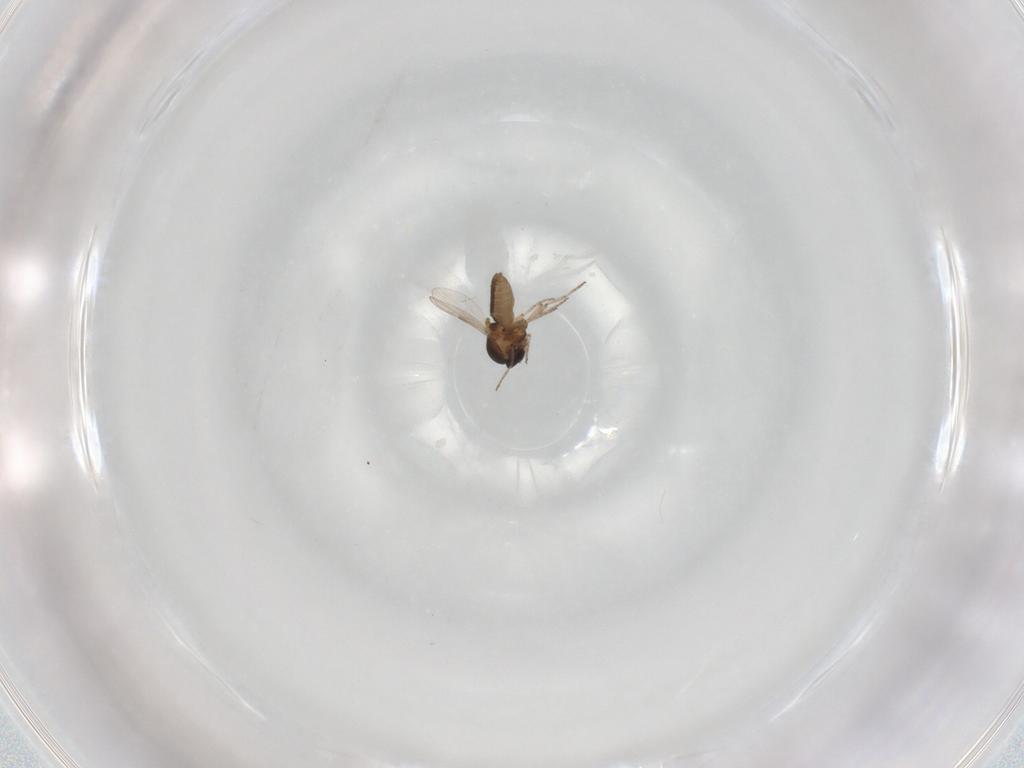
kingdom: Animalia
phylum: Arthropoda
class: Insecta
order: Diptera
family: Ceratopogonidae
